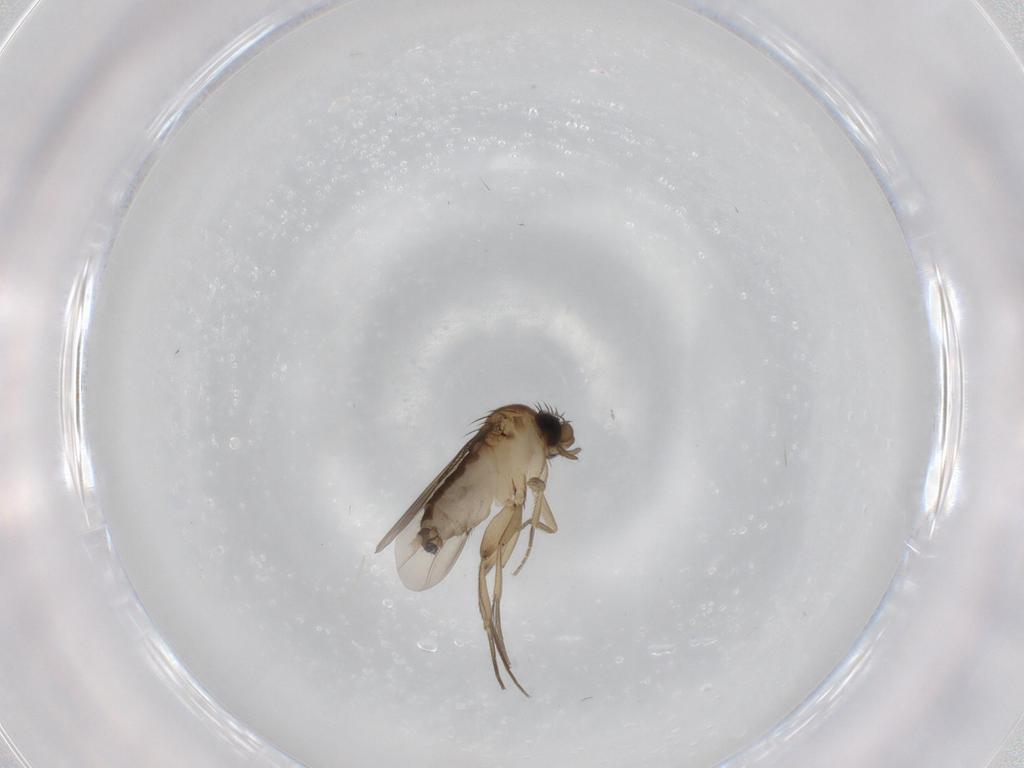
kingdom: Animalia
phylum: Arthropoda
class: Insecta
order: Diptera
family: Phoridae
